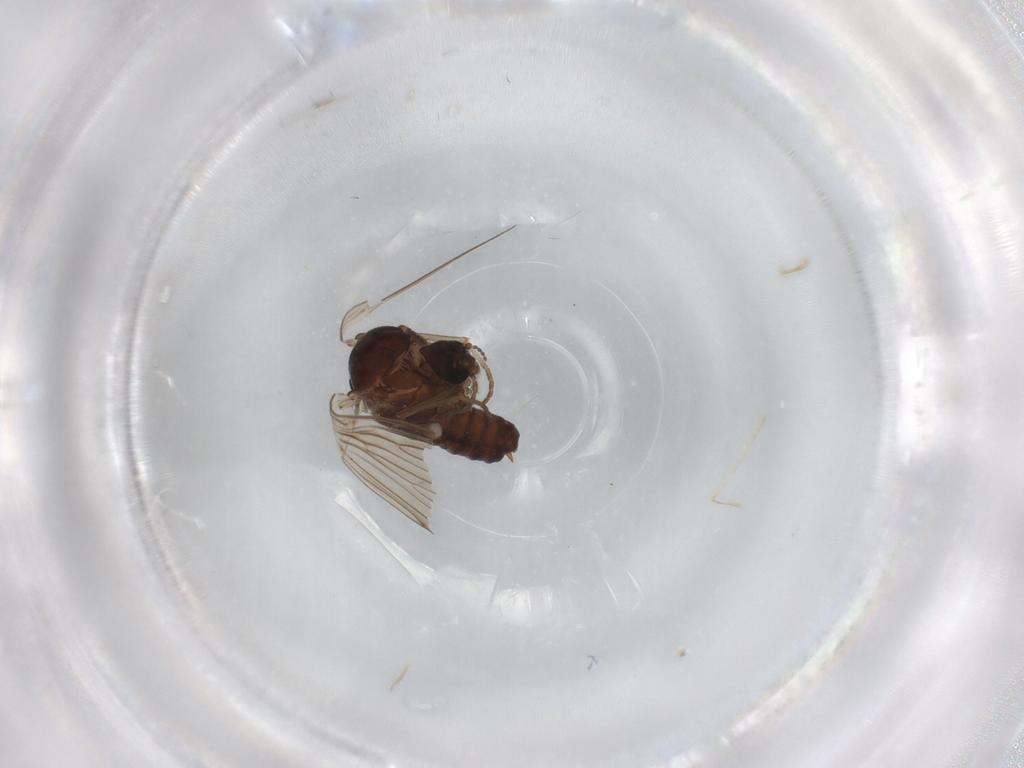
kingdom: Animalia
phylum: Arthropoda
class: Insecta
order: Diptera
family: Psychodidae
